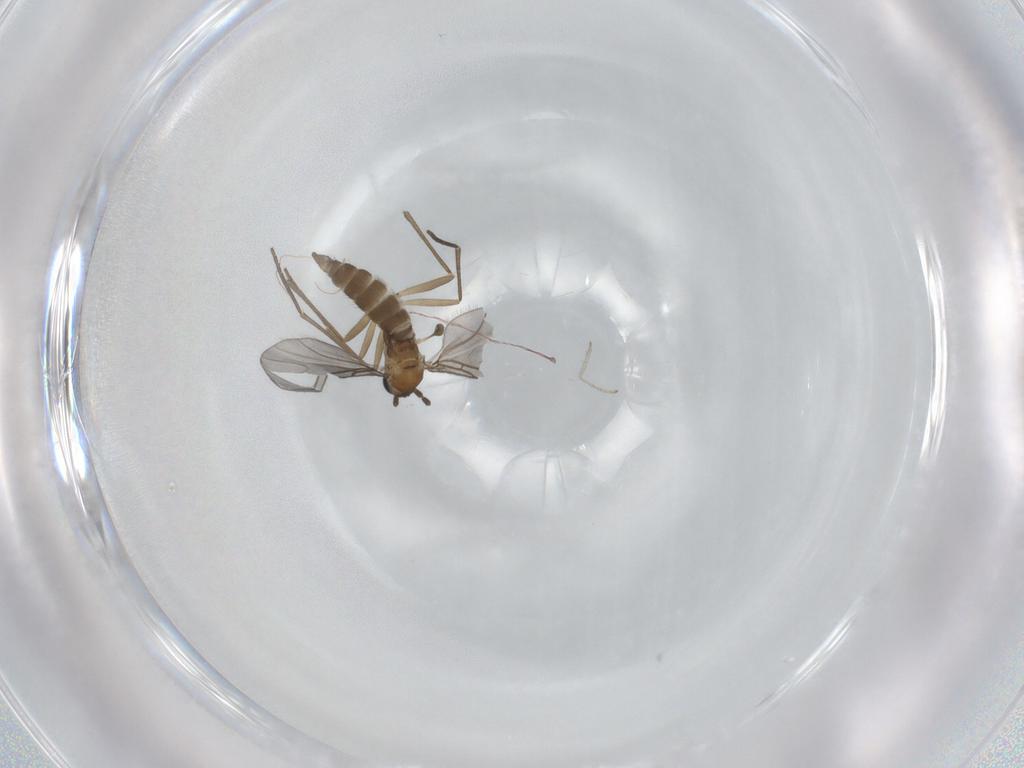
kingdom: Animalia
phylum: Arthropoda
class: Insecta
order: Diptera
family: Sciaridae
